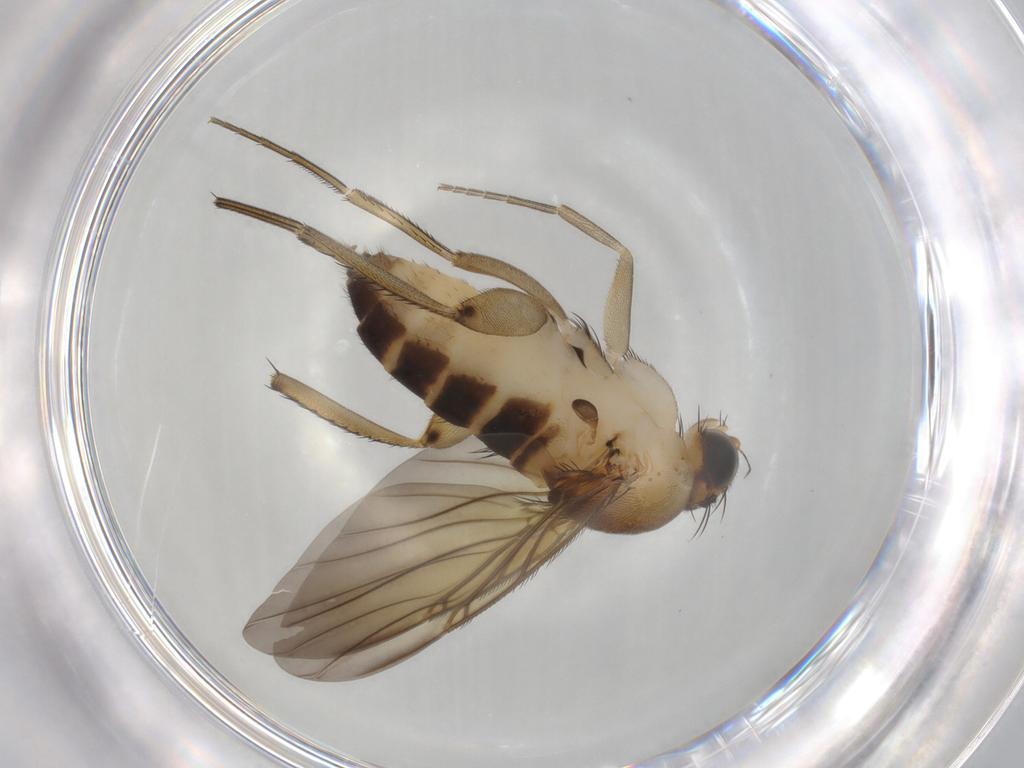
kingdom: Animalia
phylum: Arthropoda
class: Insecta
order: Diptera
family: Phoridae
